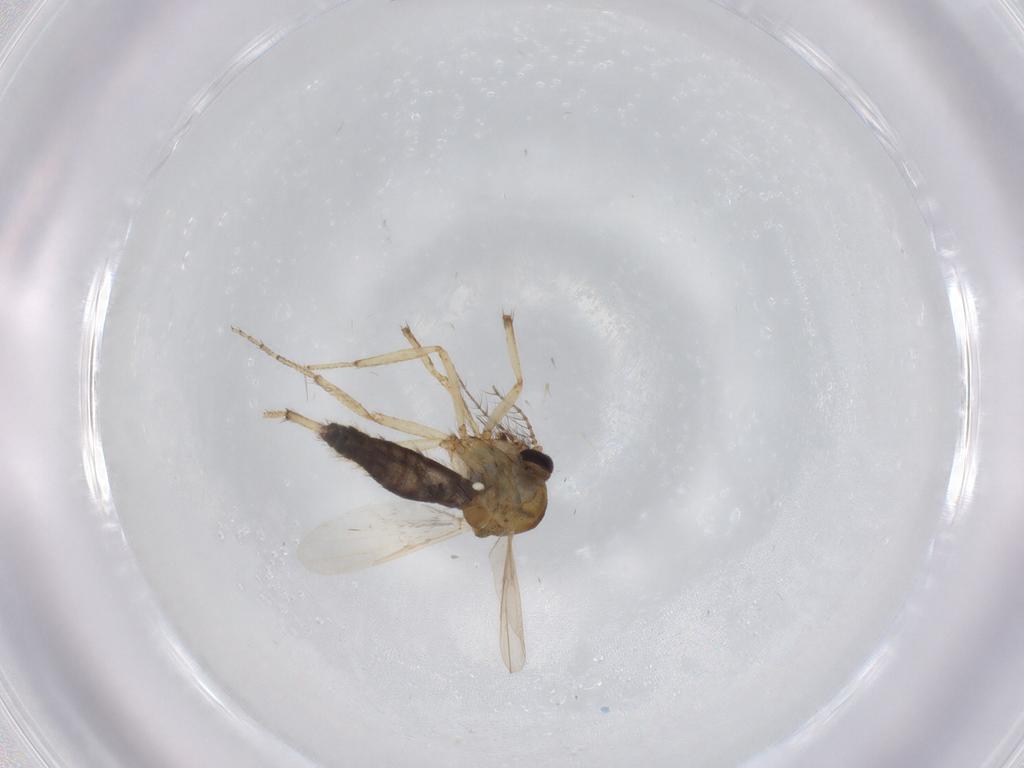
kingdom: Animalia
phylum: Arthropoda
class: Insecta
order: Diptera
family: Ceratopogonidae
